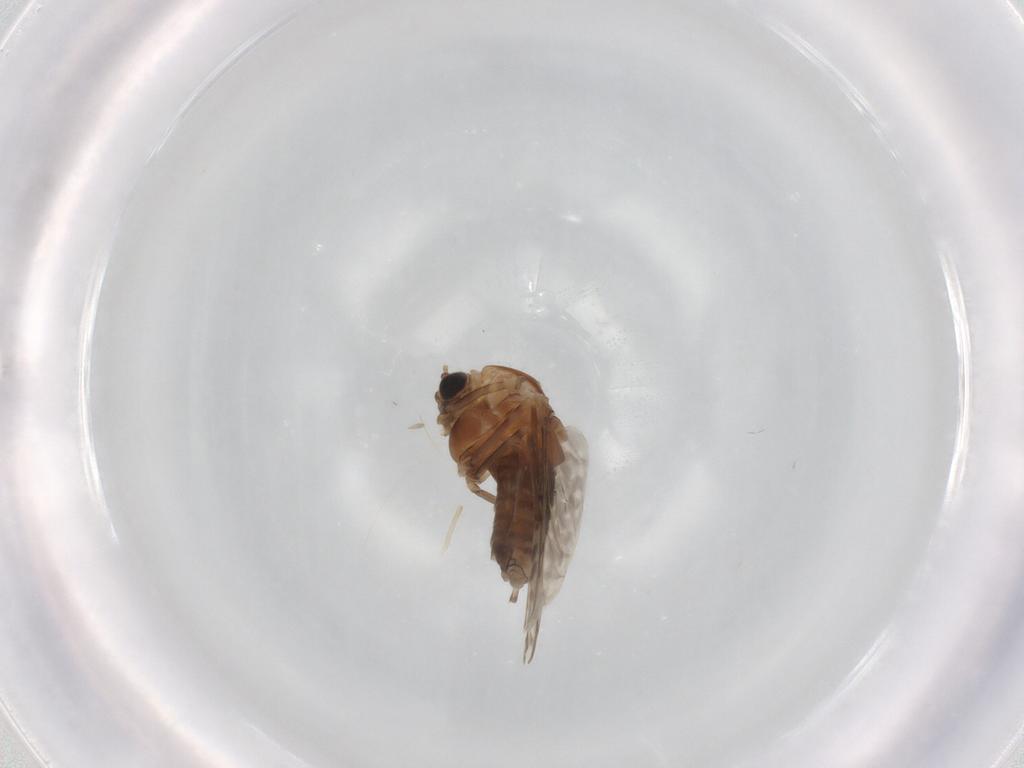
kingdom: Animalia
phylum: Arthropoda
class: Insecta
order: Diptera
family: Chironomidae
